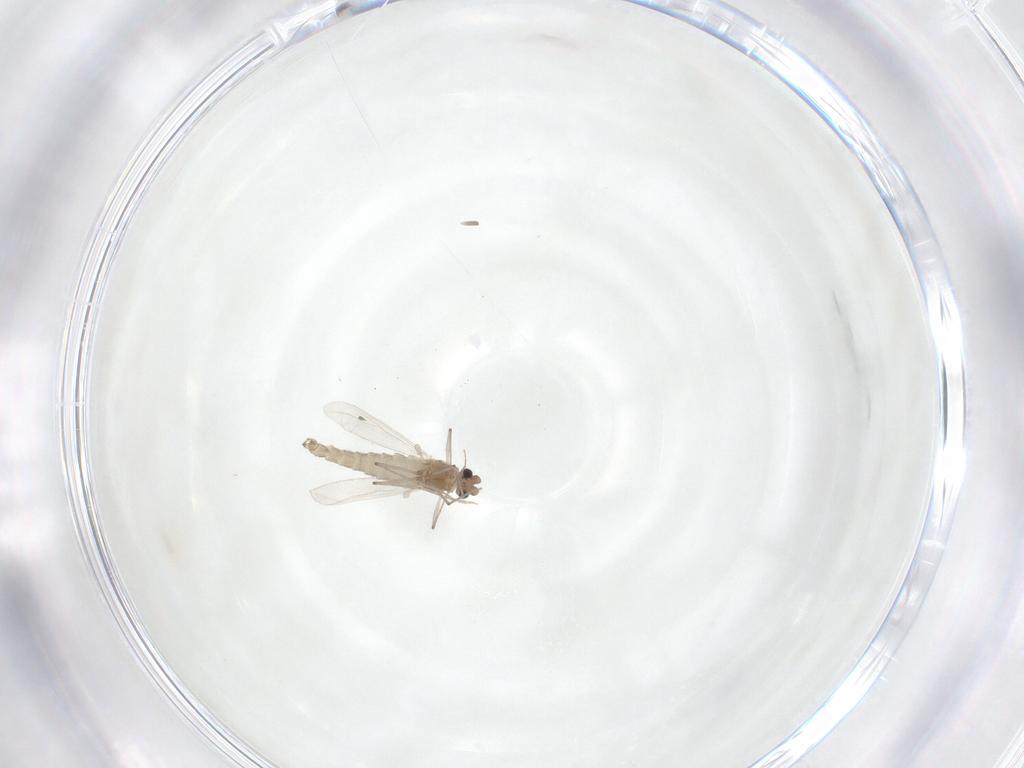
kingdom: Animalia
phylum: Arthropoda
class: Insecta
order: Diptera
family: Chironomidae
